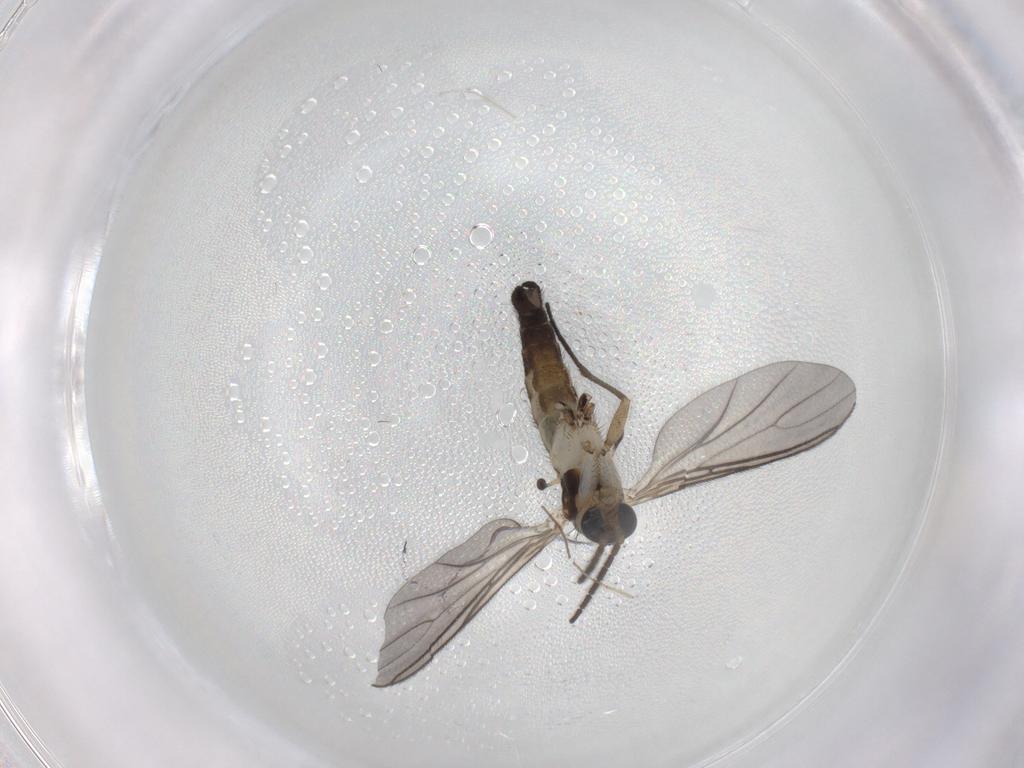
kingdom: Animalia
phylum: Arthropoda
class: Insecta
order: Diptera
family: Sciaridae
